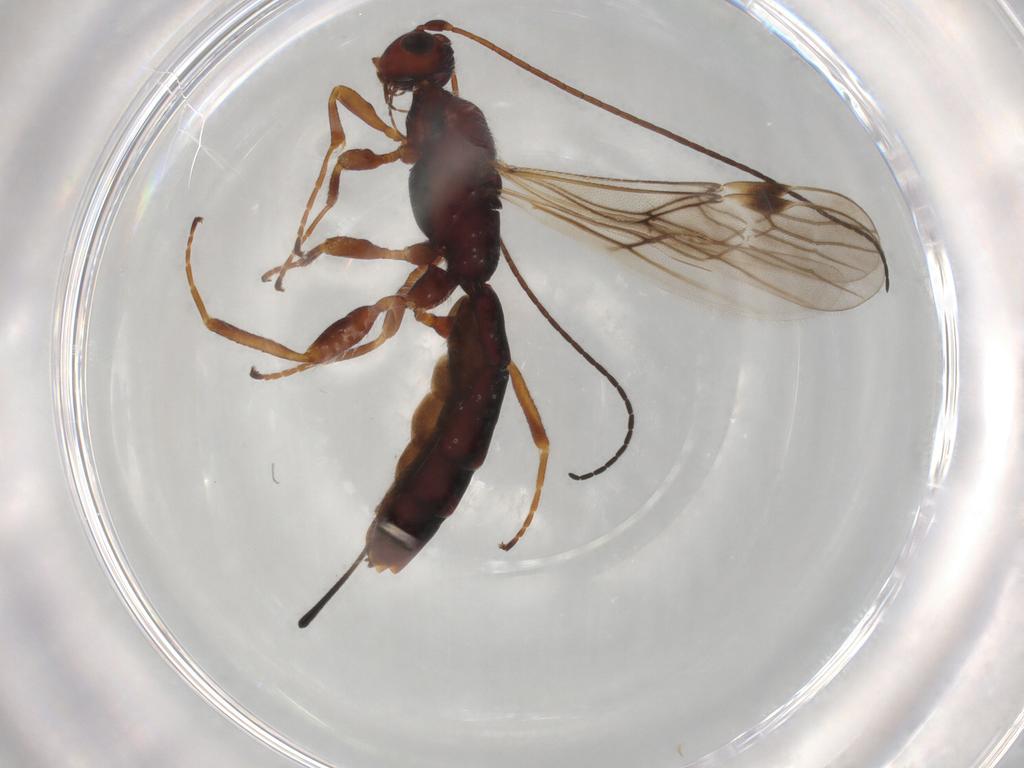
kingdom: Animalia
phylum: Arthropoda
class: Insecta
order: Hymenoptera
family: Braconidae
